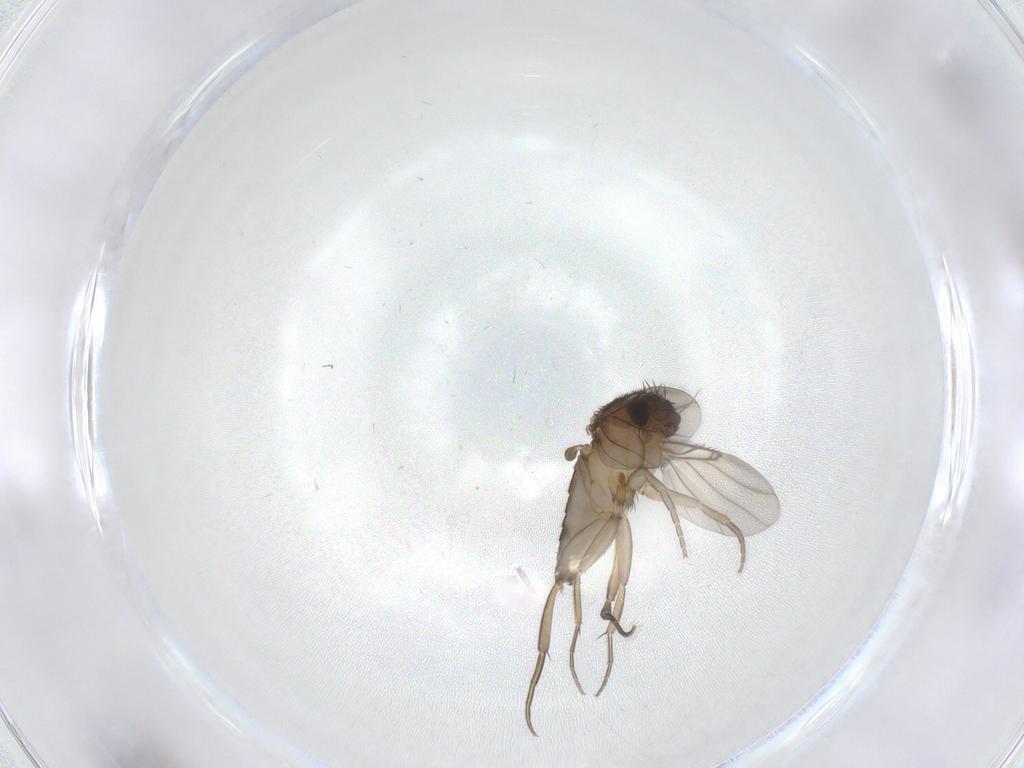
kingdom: Animalia
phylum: Arthropoda
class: Insecta
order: Diptera
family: Phoridae
